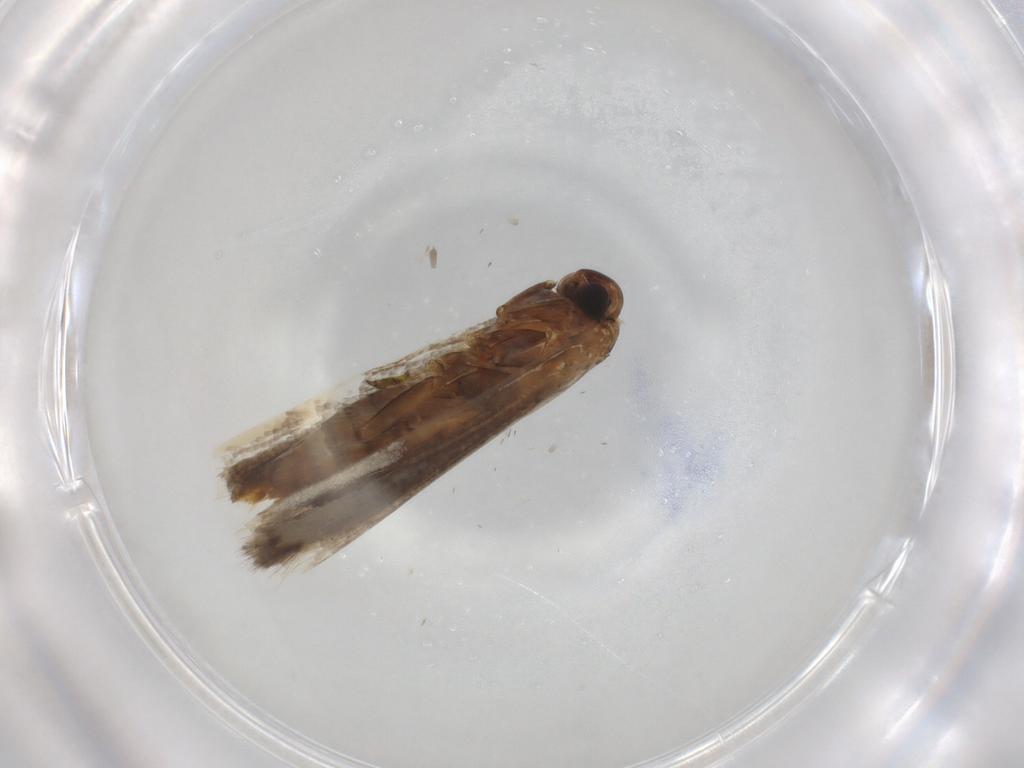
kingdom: Animalia
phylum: Arthropoda
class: Insecta
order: Lepidoptera
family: Gelechiidae
